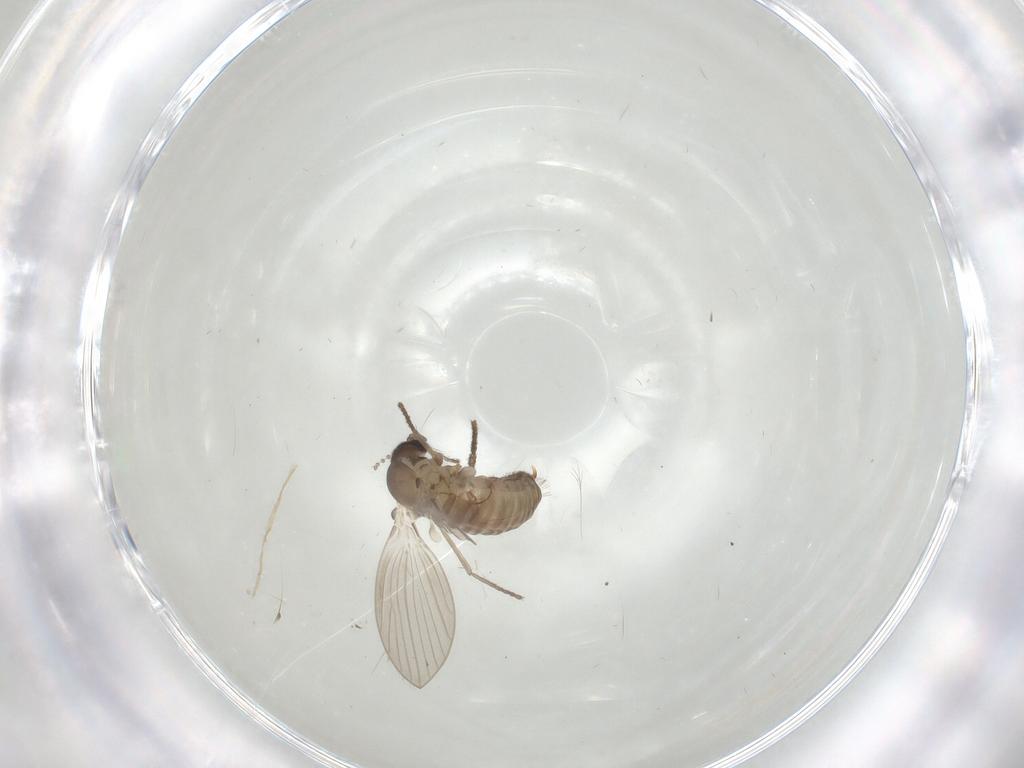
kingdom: Animalia
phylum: Arthropoda
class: Insecta
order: Diptera
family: Psychodidae
